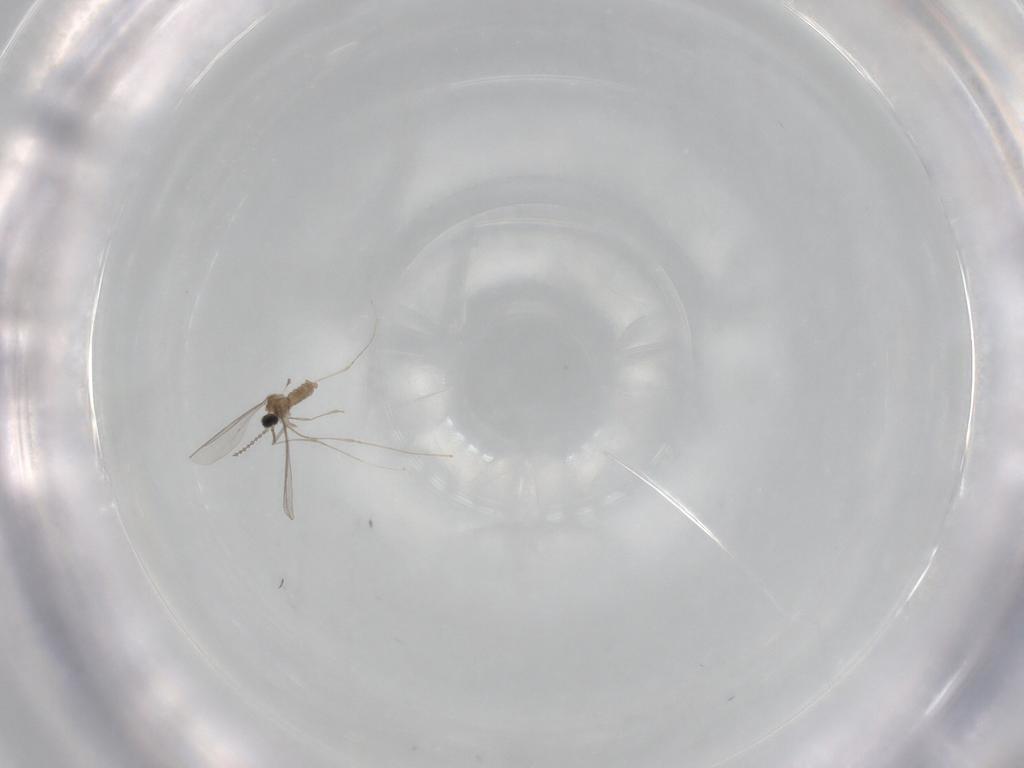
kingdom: Animalia
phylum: Arthropoda
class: Insecta
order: Diptera
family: Cecidomyiidae
